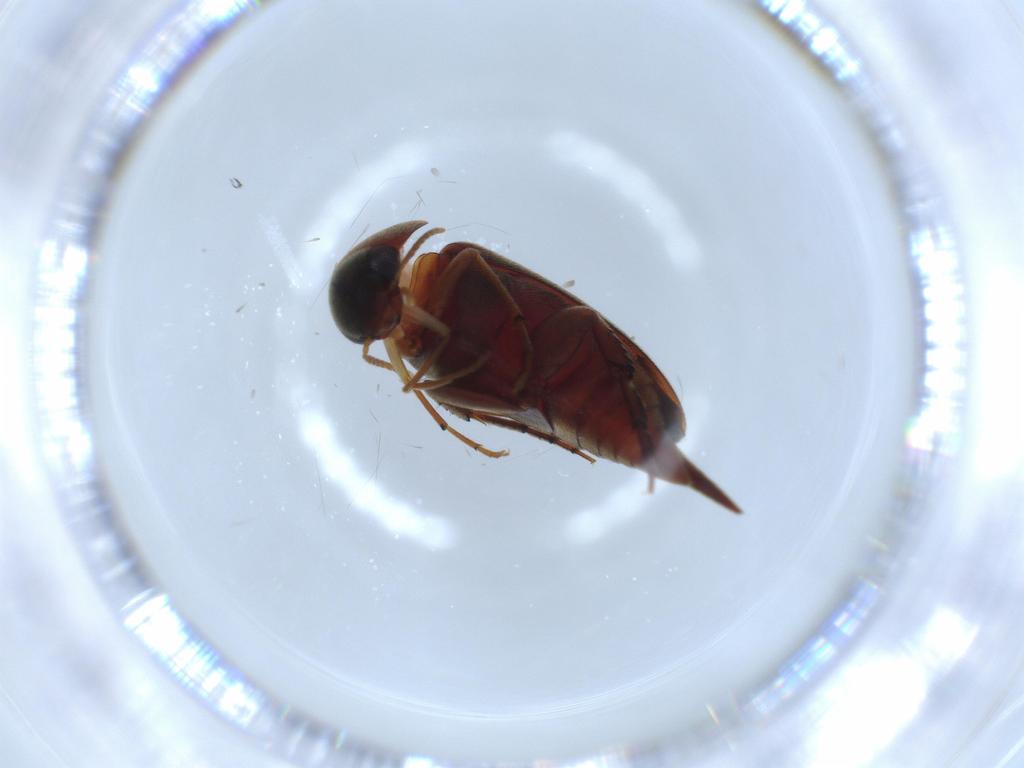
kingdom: Animalia
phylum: Arthropoda
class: Insecta
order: Coleoptera
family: Mordellidae
